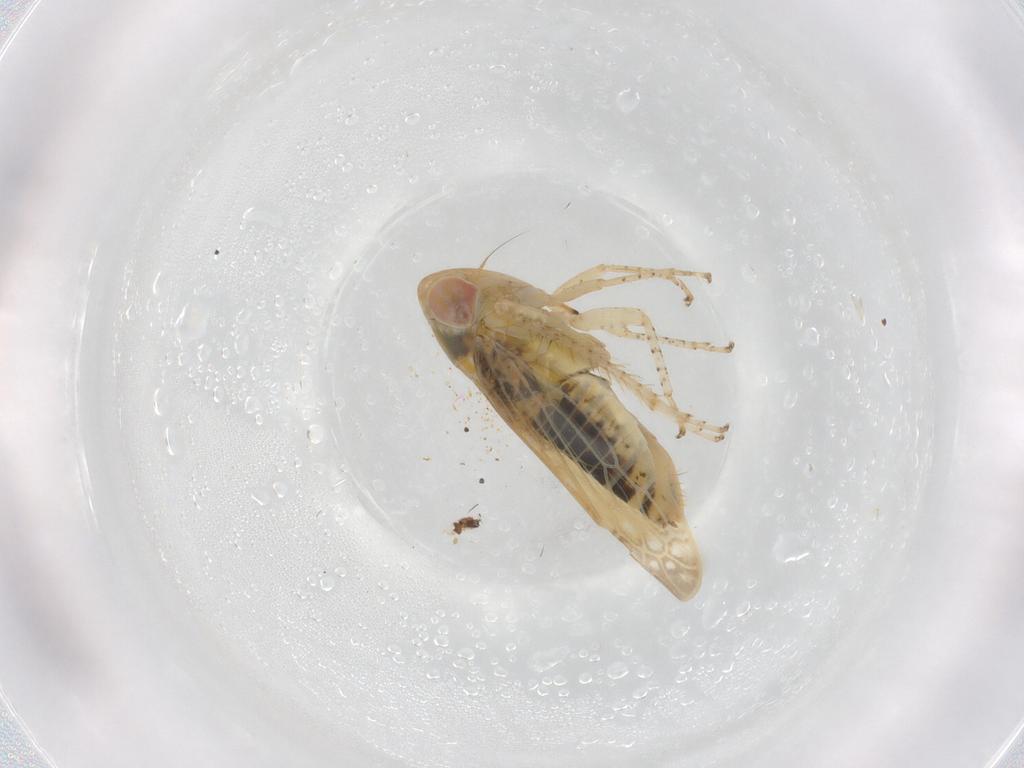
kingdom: Animalia
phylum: Arthropoda
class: Insecta
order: Hemiptera
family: Cicadellidae
